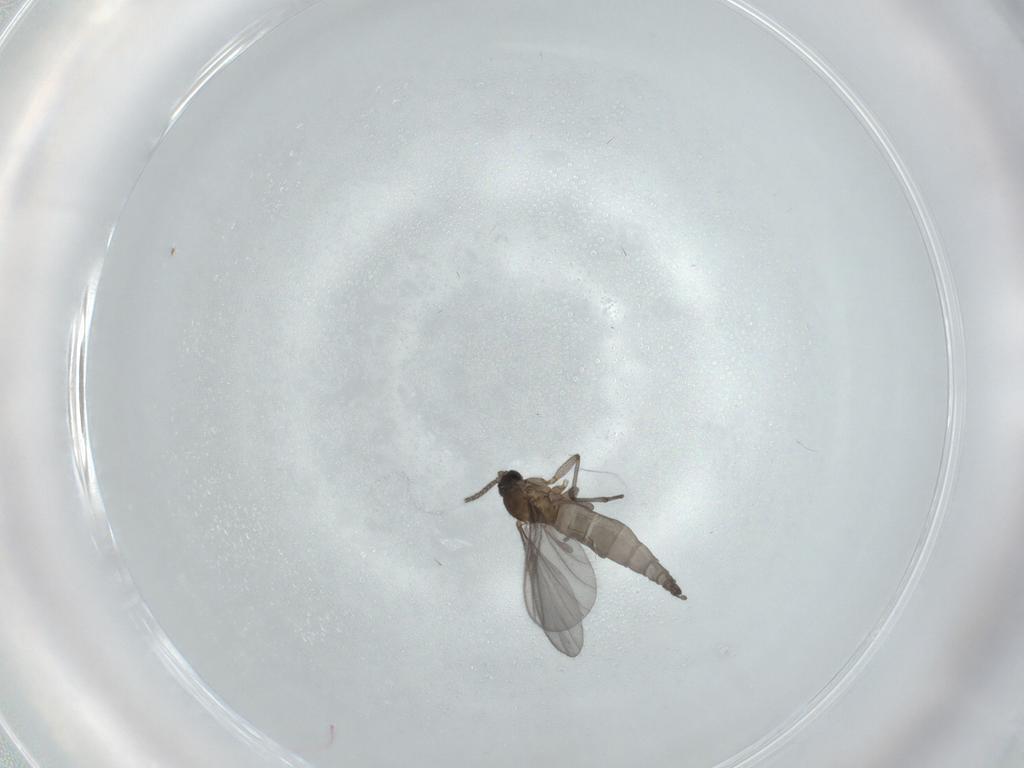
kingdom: Animalia
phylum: Arthropoda
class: Insecta
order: Diptera
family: Sciaridae
